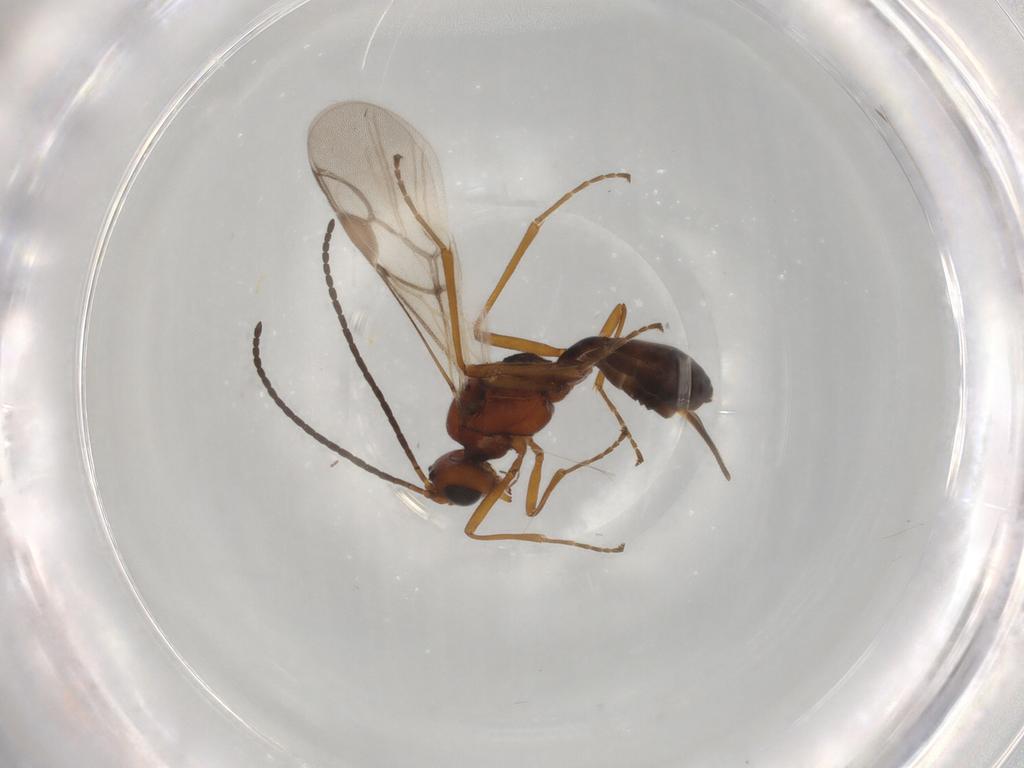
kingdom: Animalia
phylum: Arthropoda
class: Insecta
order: Hymenoptera
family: Braconidae
